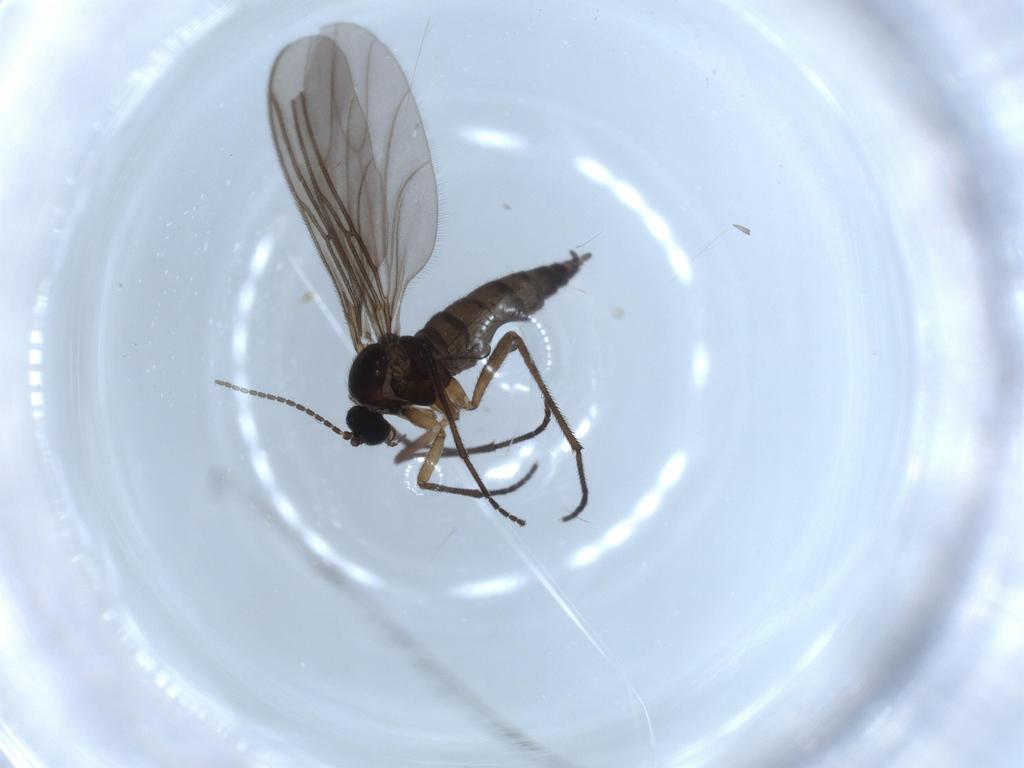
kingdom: Animalia
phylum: Arthropoda
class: Insecta
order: Diptera
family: Sciaridae
